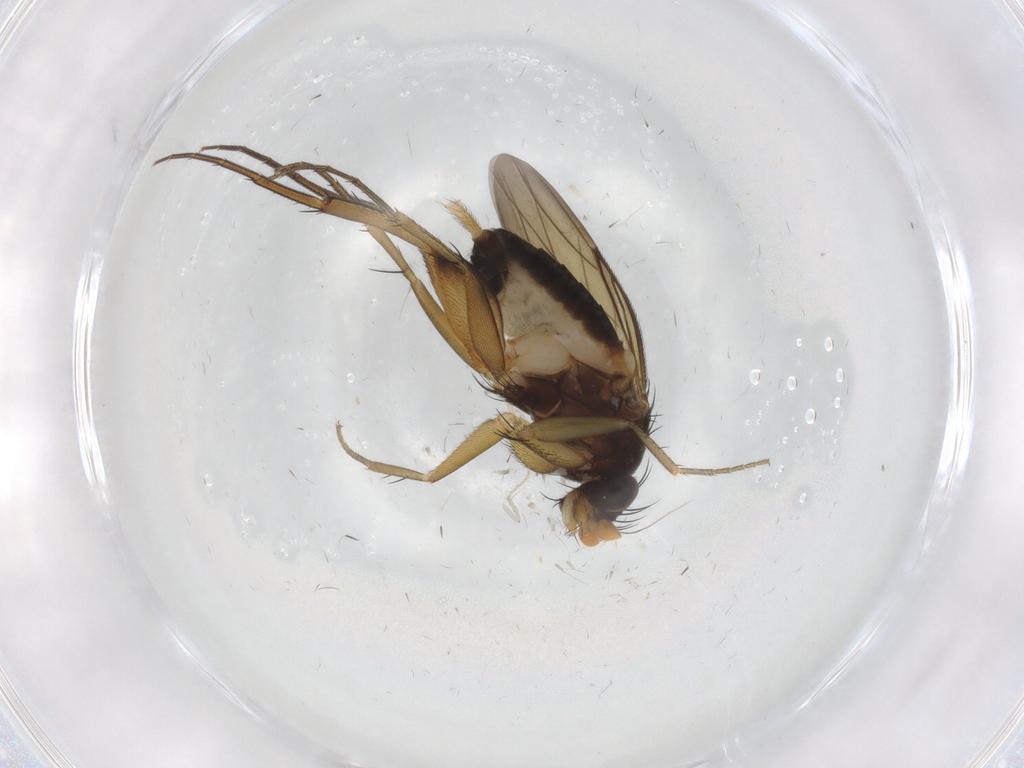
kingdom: Animalia
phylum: Arthropoda
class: Insecta
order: Diptera
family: Phoridae
